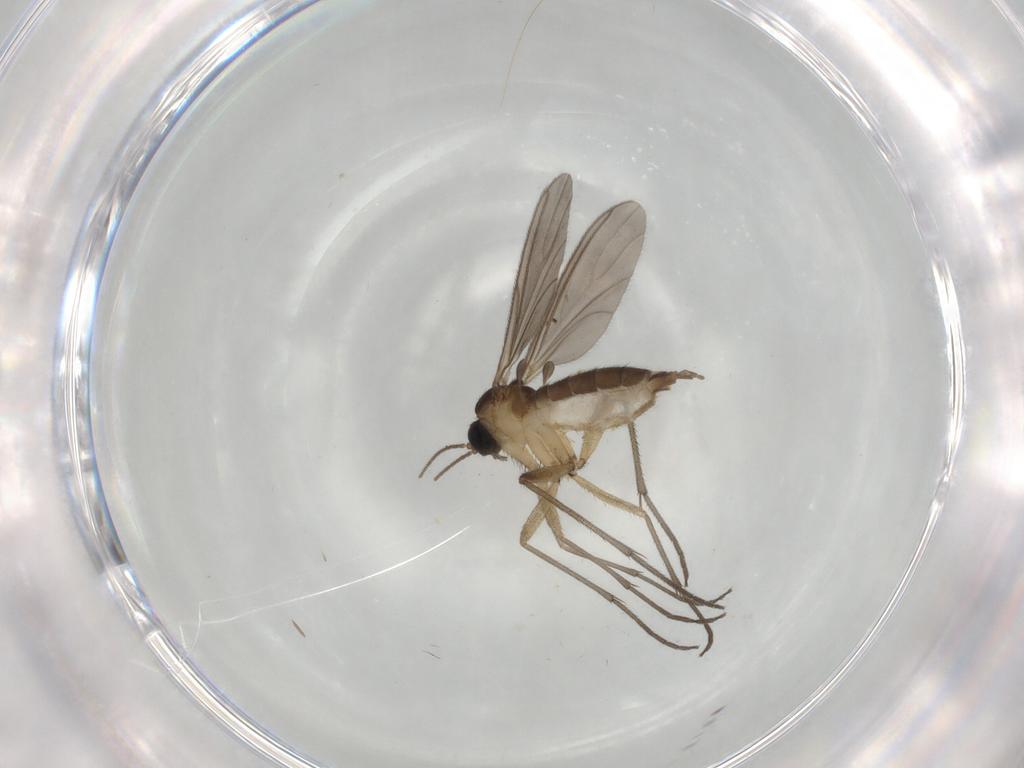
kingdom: Animalia
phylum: Arthropoda
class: Insecta
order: Diptera
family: Sciaridae
